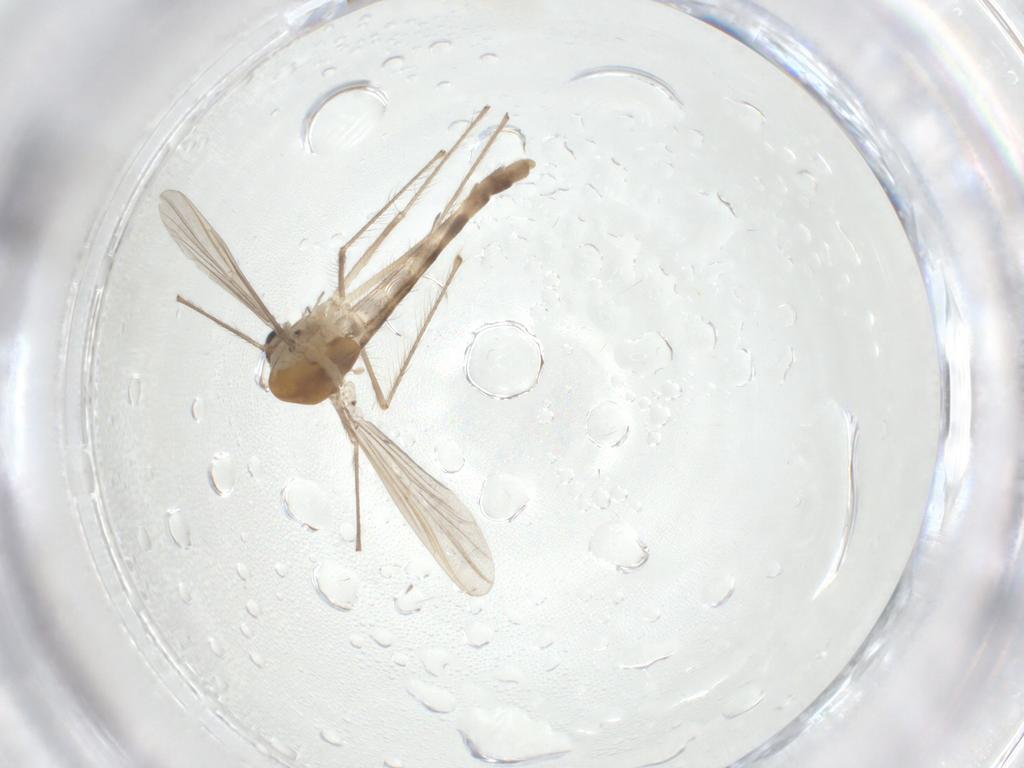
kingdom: Animalia
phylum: Arthropoda
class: Insecta
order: Diptera
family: Chironomidae
